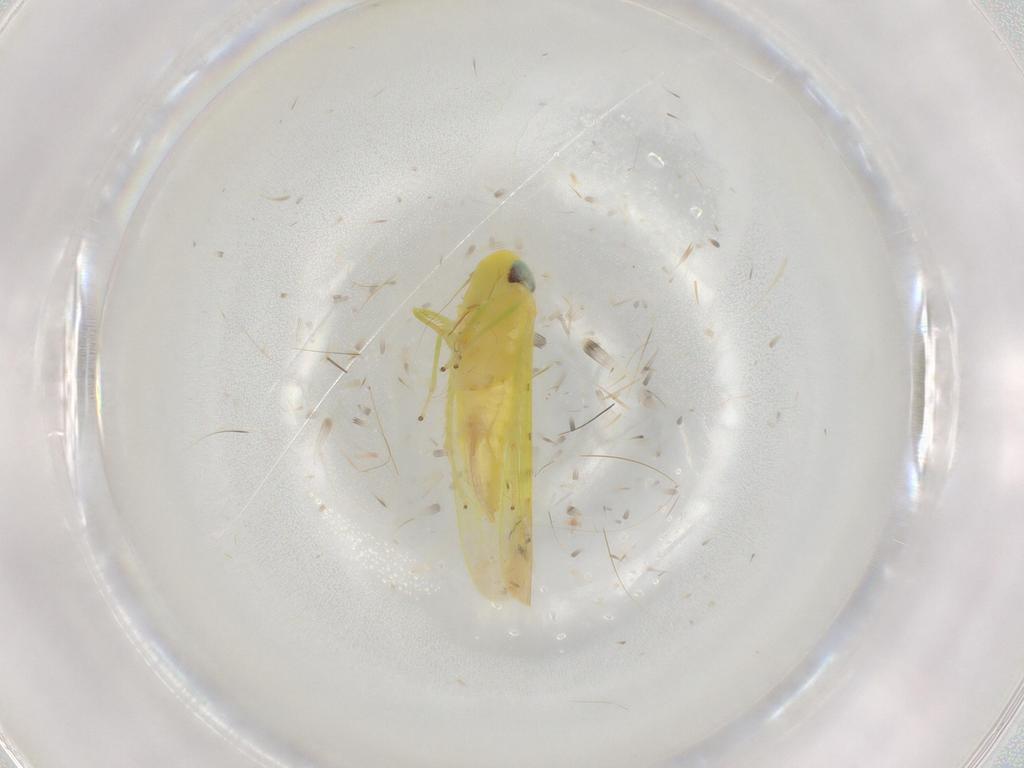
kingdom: Animalia
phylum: Arthropoda
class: Insecta
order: Hemiptera
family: Cicadellidae
